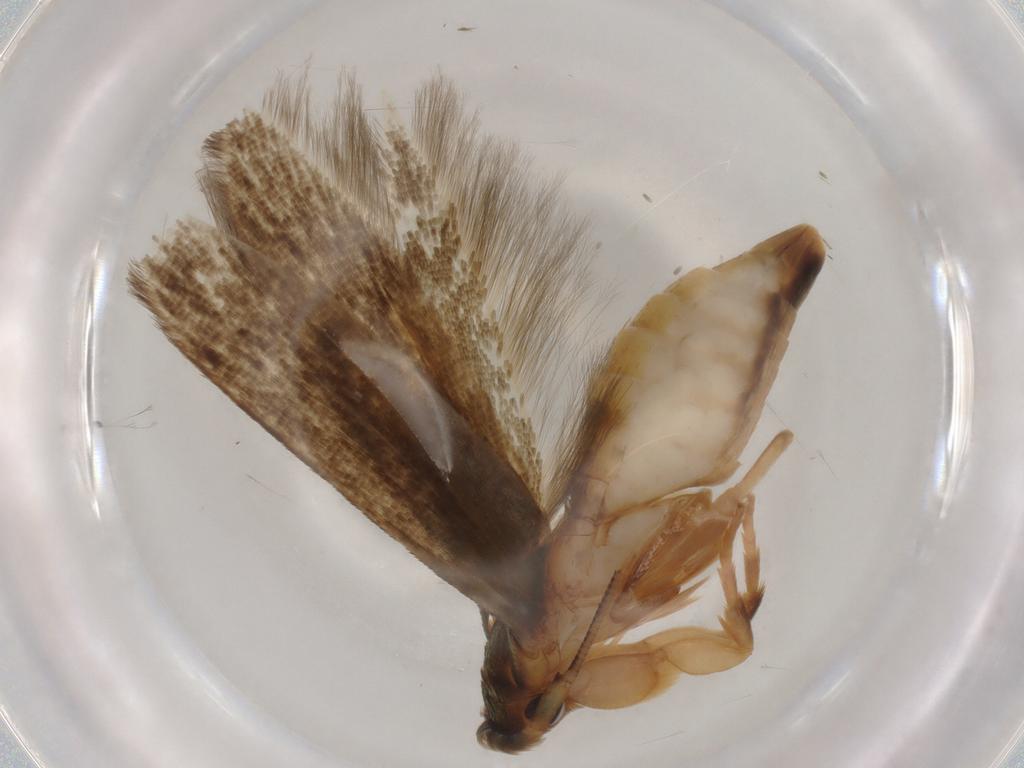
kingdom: Animalia
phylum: Arthropoda
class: Insecta
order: Lepidoptera
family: Tineidae
